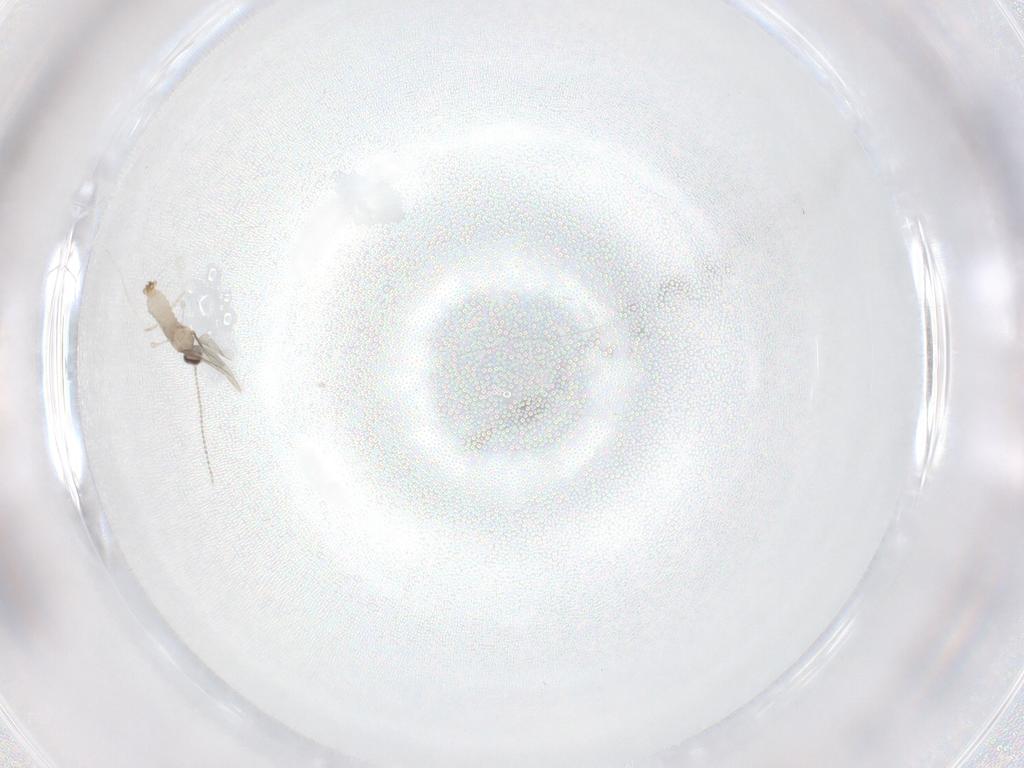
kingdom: Animalia
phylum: Arthropoda
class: Insecta
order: Diptera
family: Cecidomyiidae
